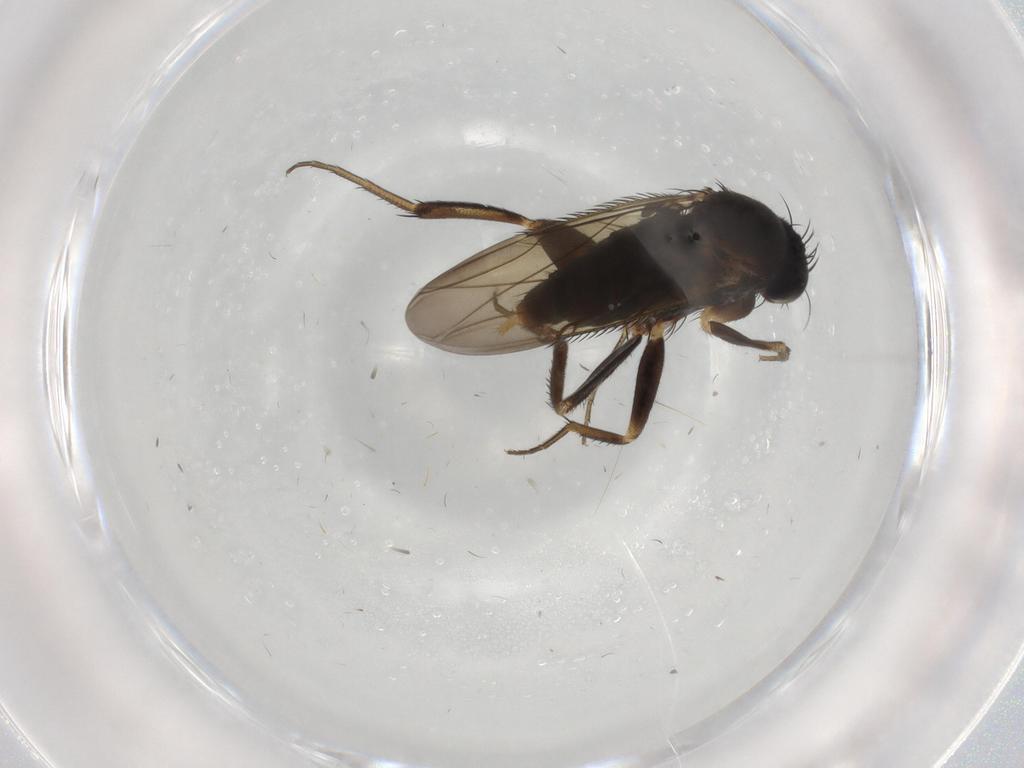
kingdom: Animalia
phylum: Arthropoda
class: Insecta
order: Diptera
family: Phoridae
